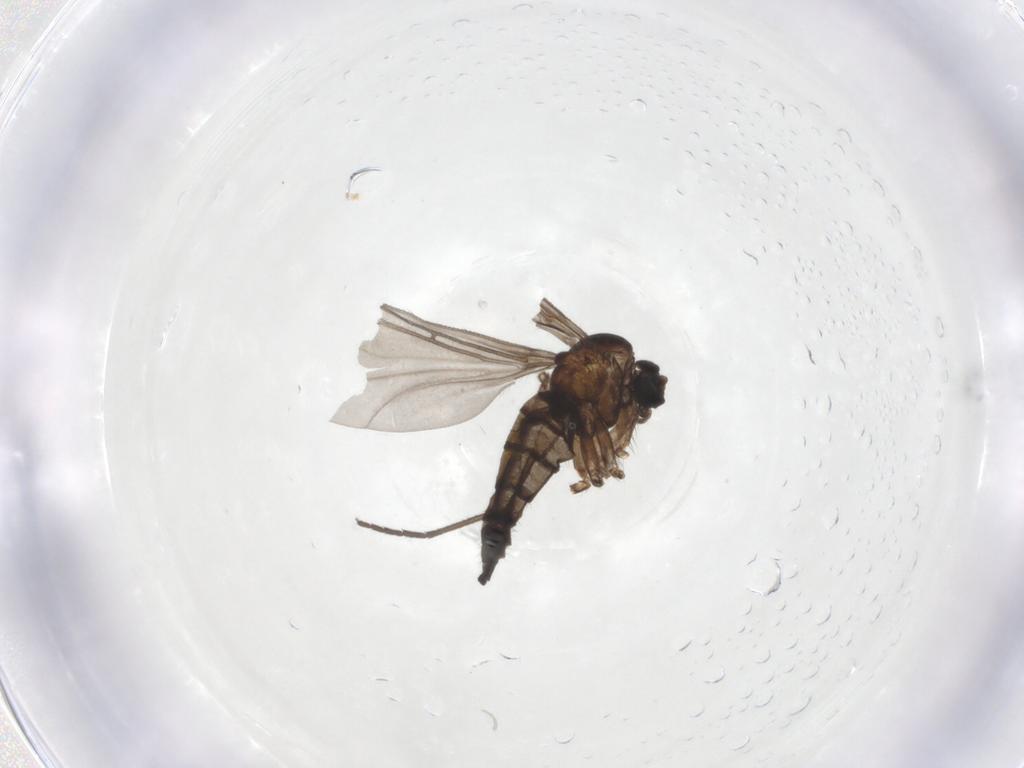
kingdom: Animalia
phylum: Arthropoda
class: Insecta
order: Diptera
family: Sciaridae
